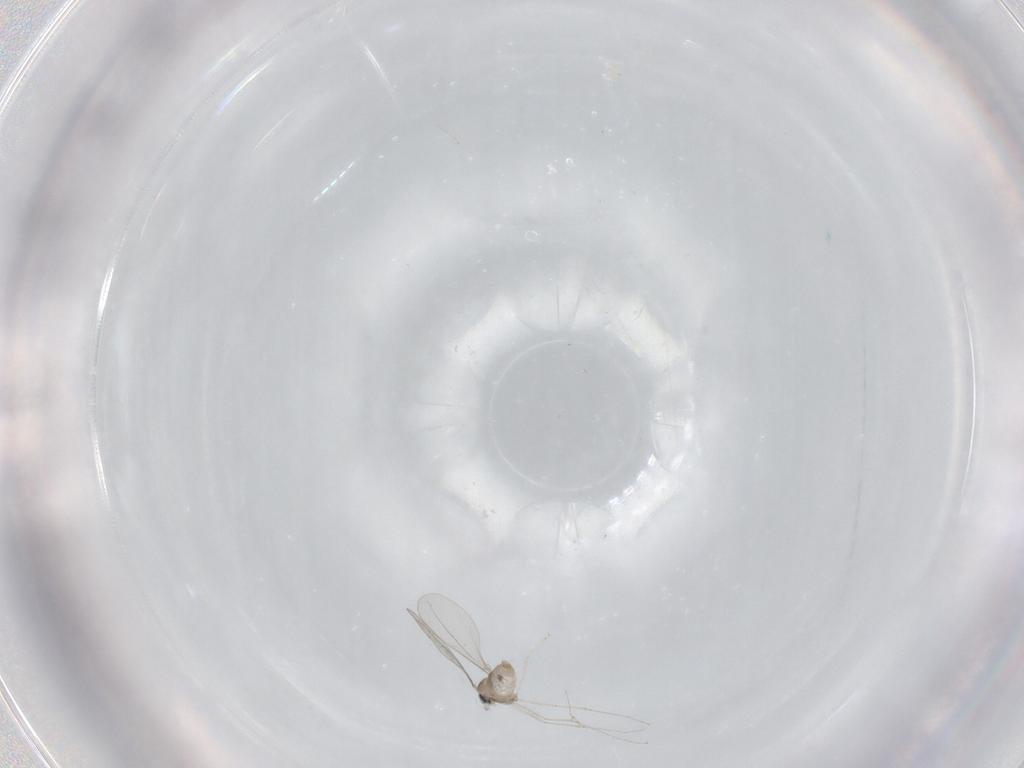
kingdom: Animalia
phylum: Arthropoda
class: Insecta
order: Diptera
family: Cecidomyiidae
